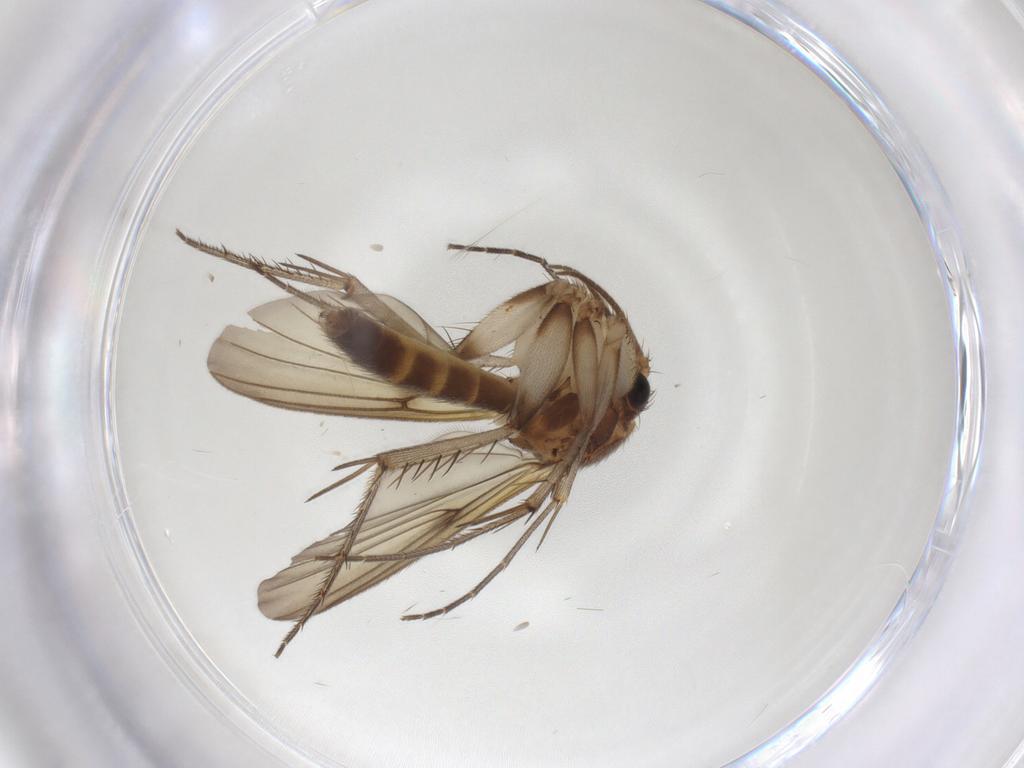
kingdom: Animalia
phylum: Arthropoda
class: Insecta
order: Diptera
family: Mycetophilidae
